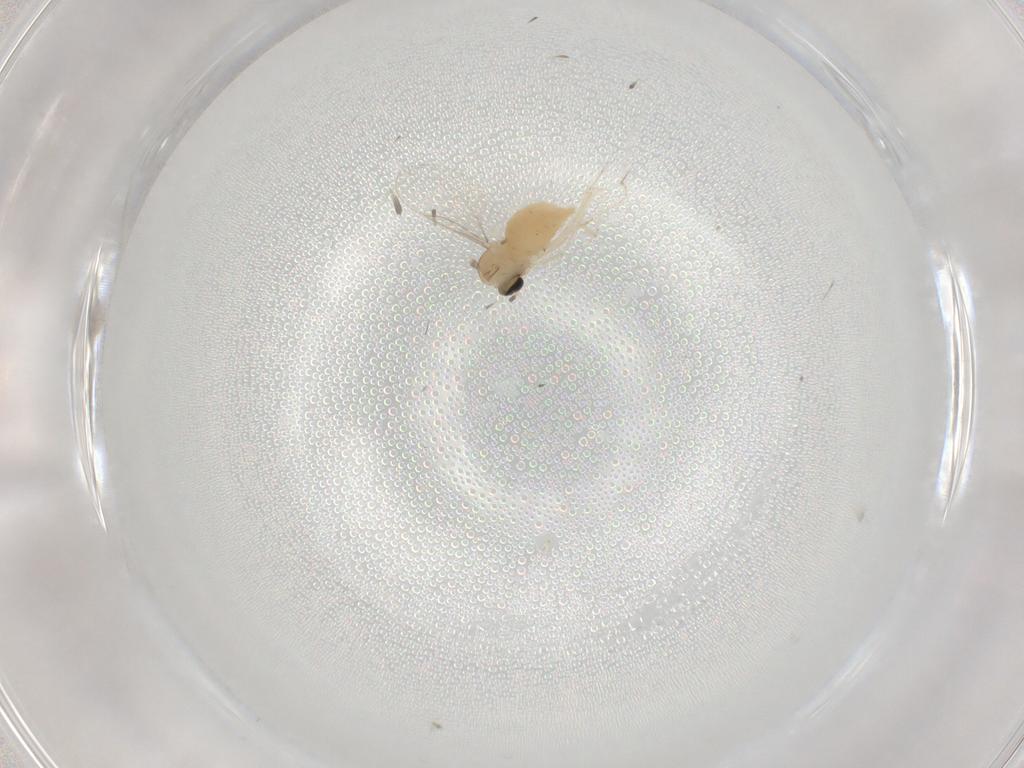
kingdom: Animalia
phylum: Arthropoda
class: Insecta
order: Diptera
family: Cecidomyiidae
